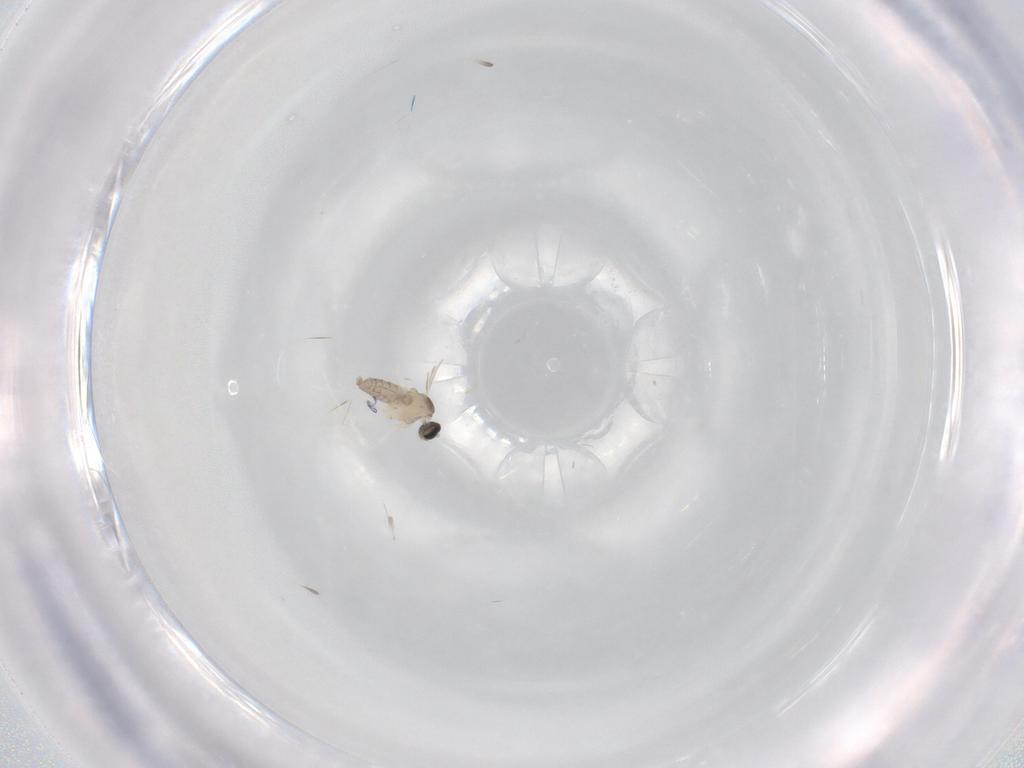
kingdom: Animalia
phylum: Arthropoda
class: Insecta
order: Diptera
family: Cecidomyiidae
